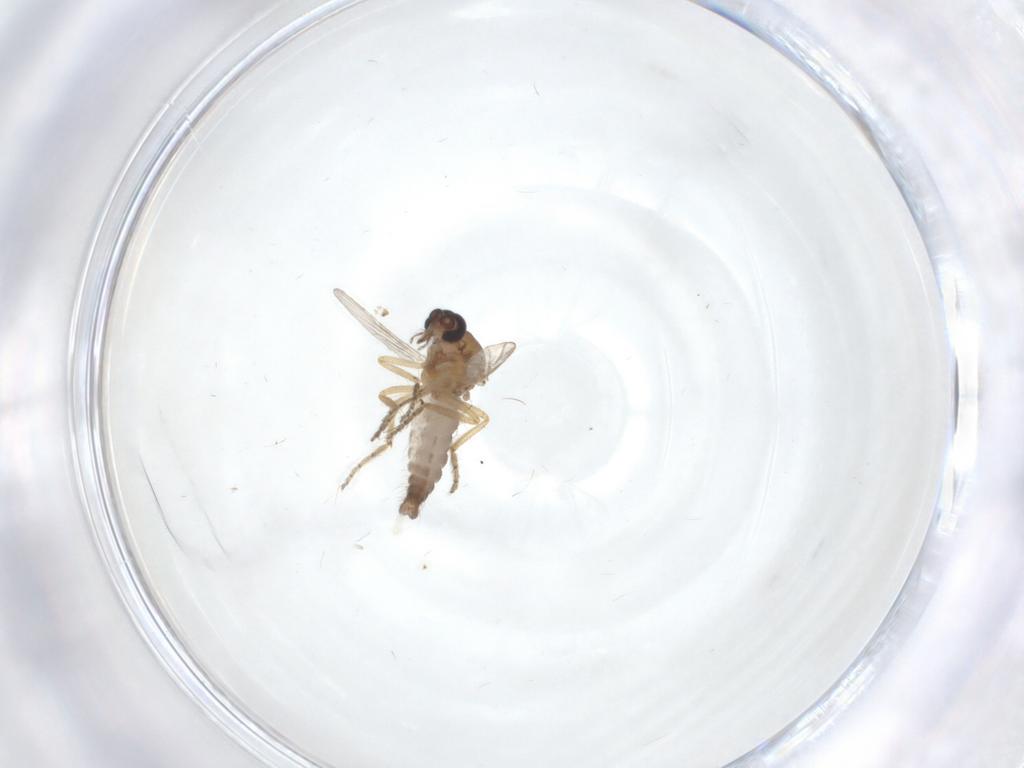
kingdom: Animalia
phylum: Arthropoda
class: Insecta
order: Diptera
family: Ceratopogonidae
